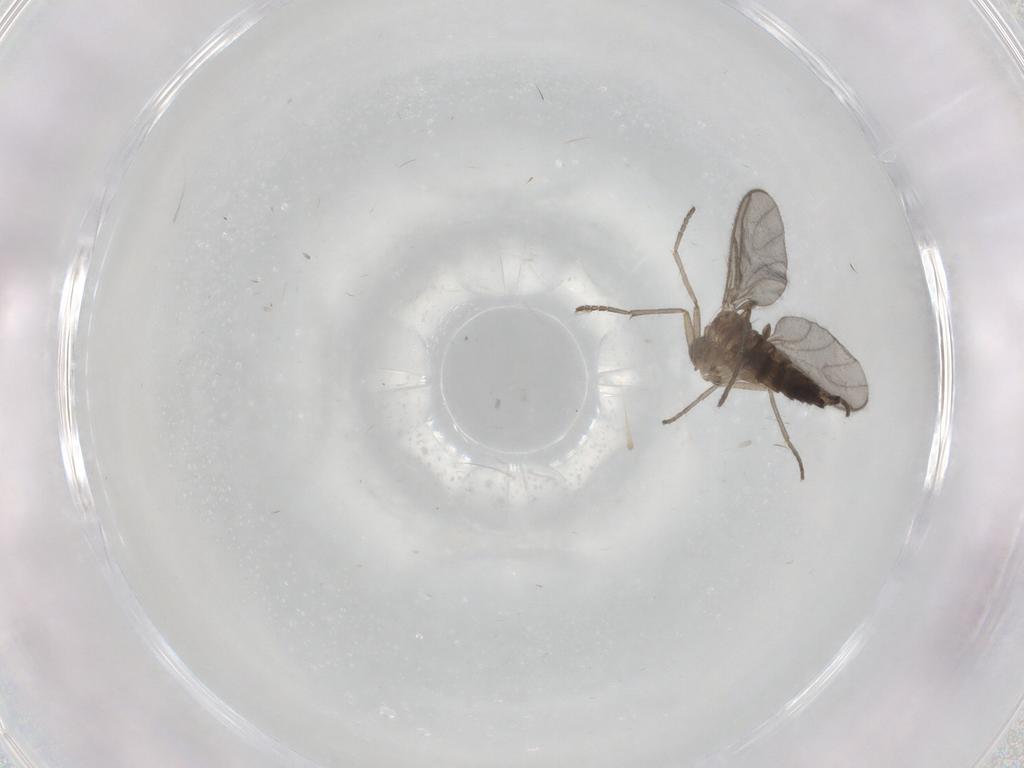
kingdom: Animalia
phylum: Arthropoda
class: Insecta
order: Diptera
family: Sciaridae
